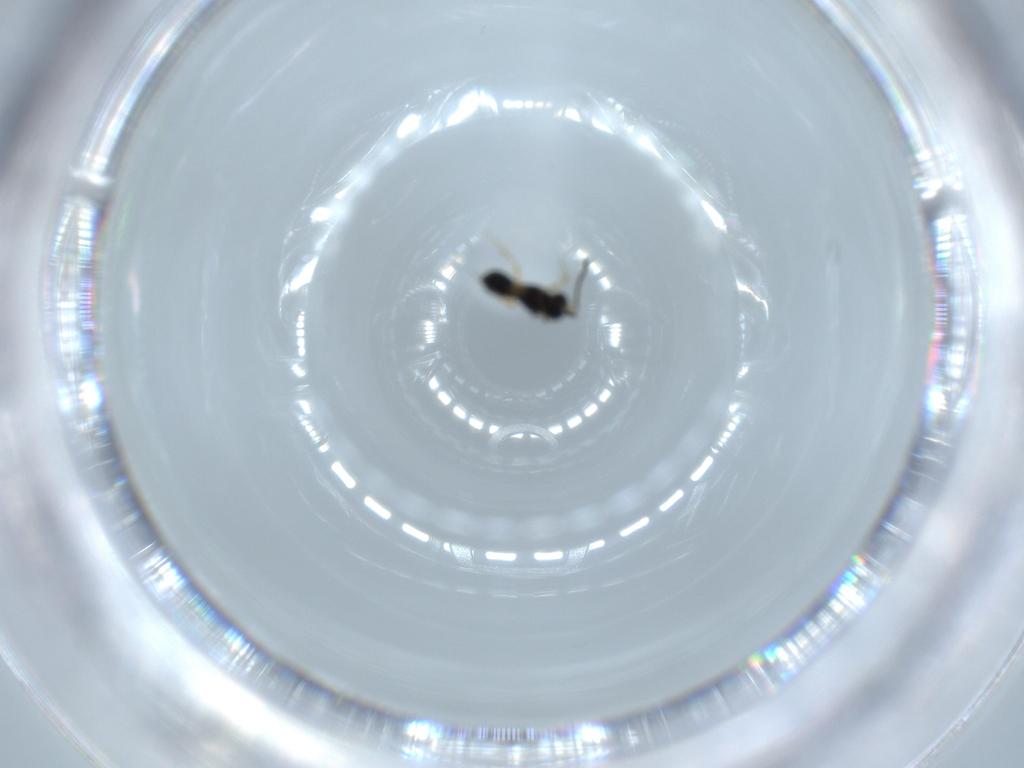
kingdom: Animalia
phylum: Arthropoda
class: Insecta
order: Hymenoptera
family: Scelionidae
